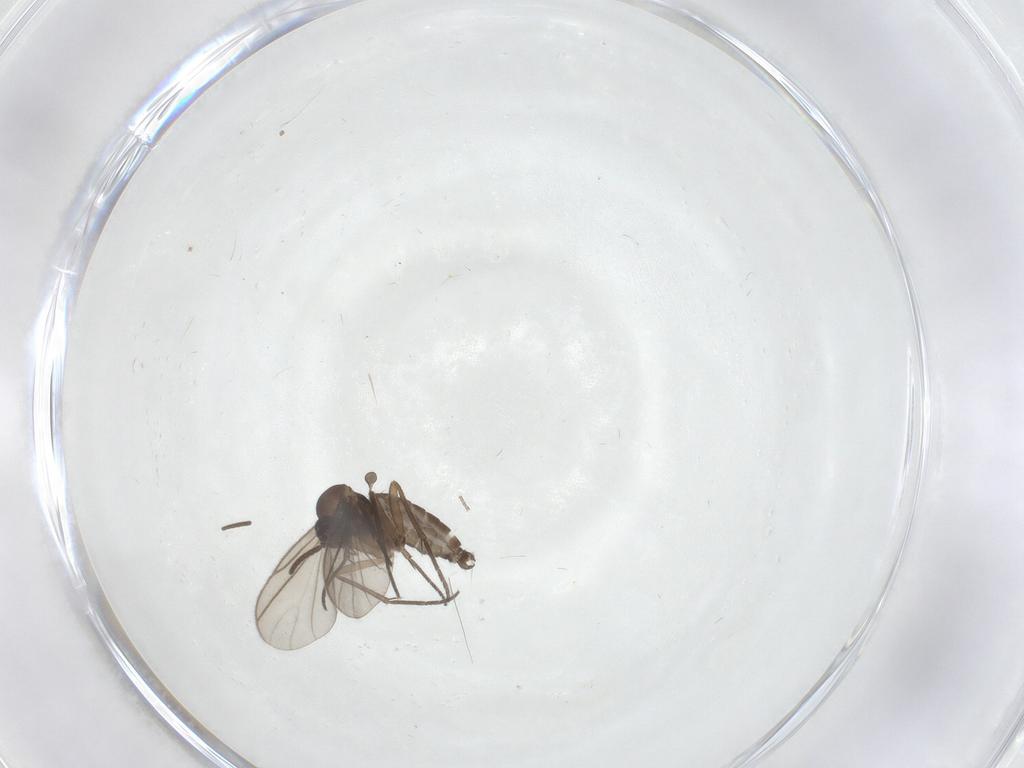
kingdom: Animalia
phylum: Arthropoda
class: Insecta
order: Diptera
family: Sciaridae
